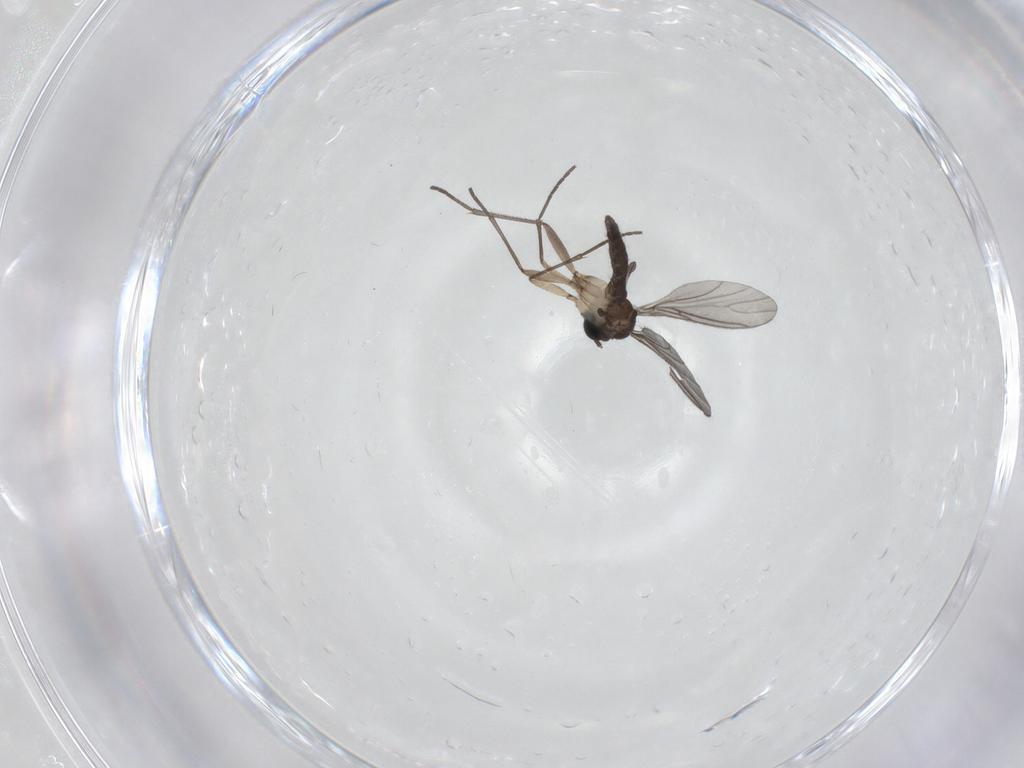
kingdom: Animalia
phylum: Arthropoda
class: Insecta
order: Diptera
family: Sciaridae
